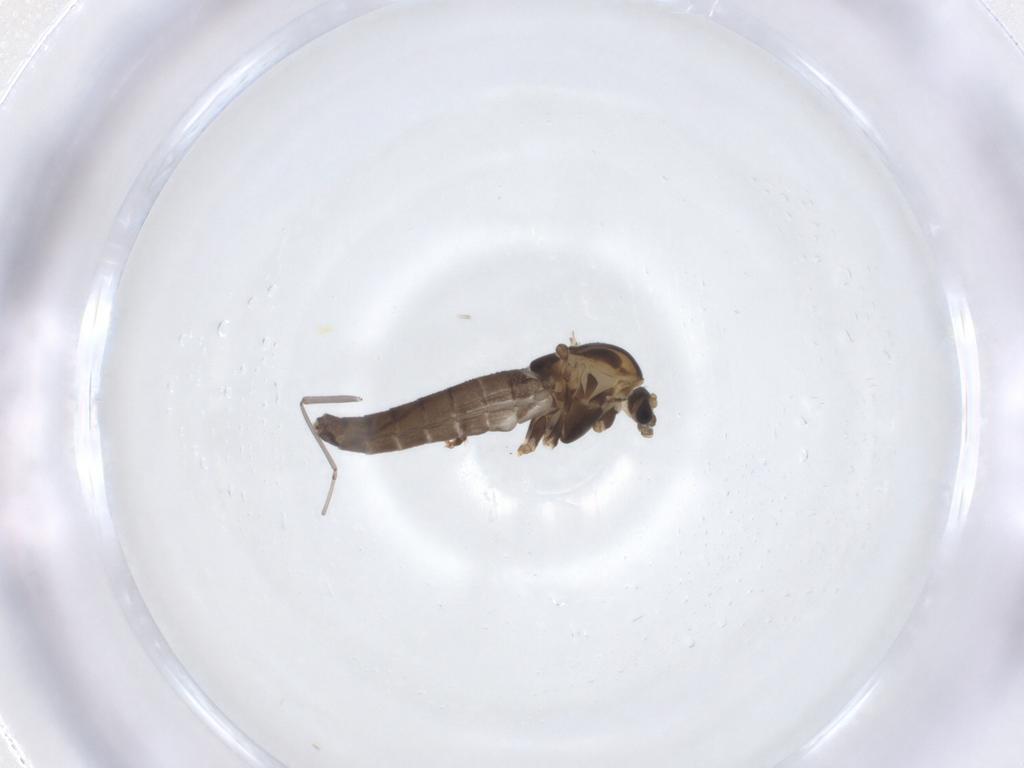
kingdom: Animalia
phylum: Arthropoda
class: Insecta
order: Diptera
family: Chironomidae
